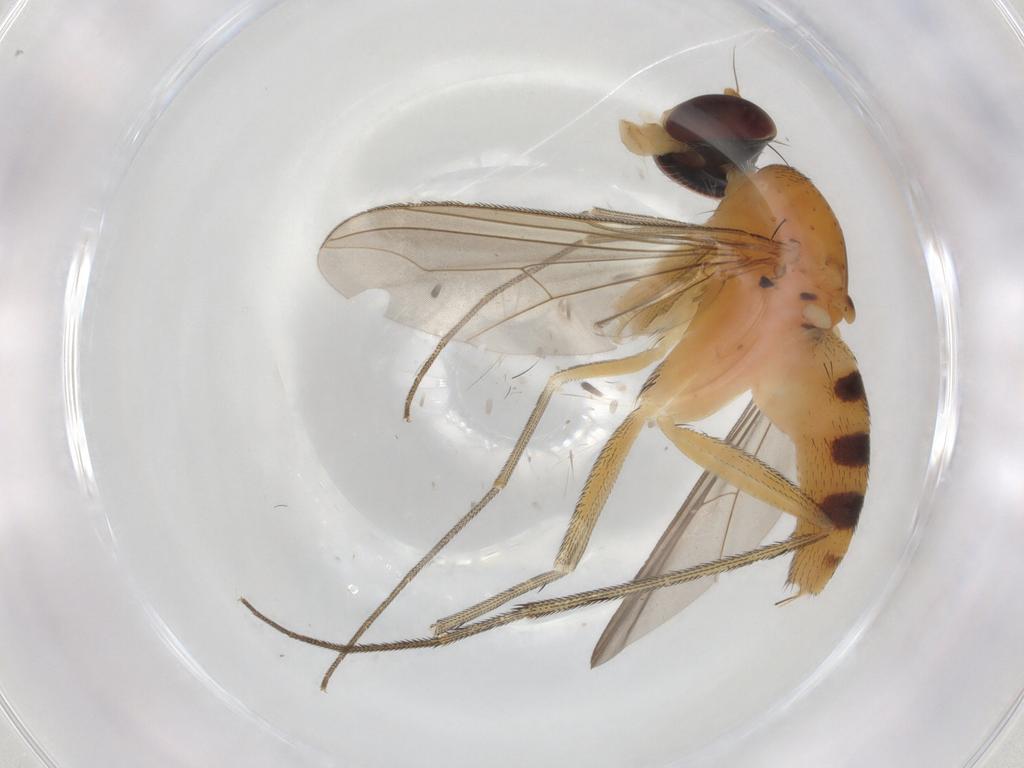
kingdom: Animalia
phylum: Arthropoda
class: Insecta
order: Diptera
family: Dolichopodidae
